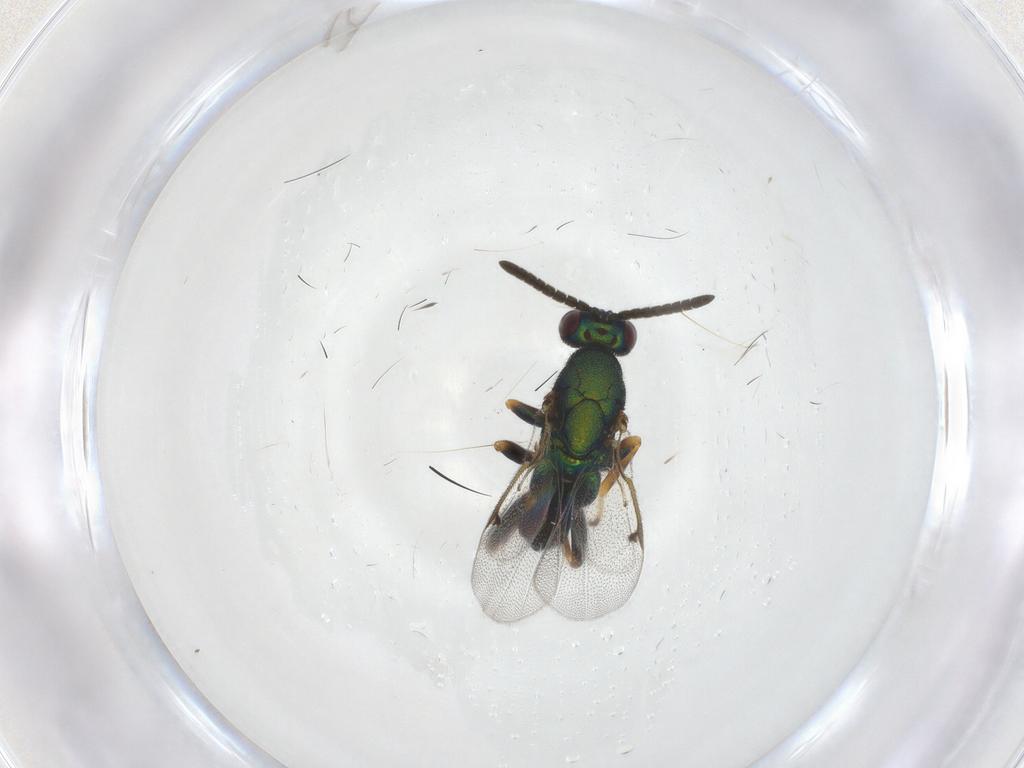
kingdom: Animalia
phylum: Arthropoda
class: Insecta
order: Hymenoptera
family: Torymidae
